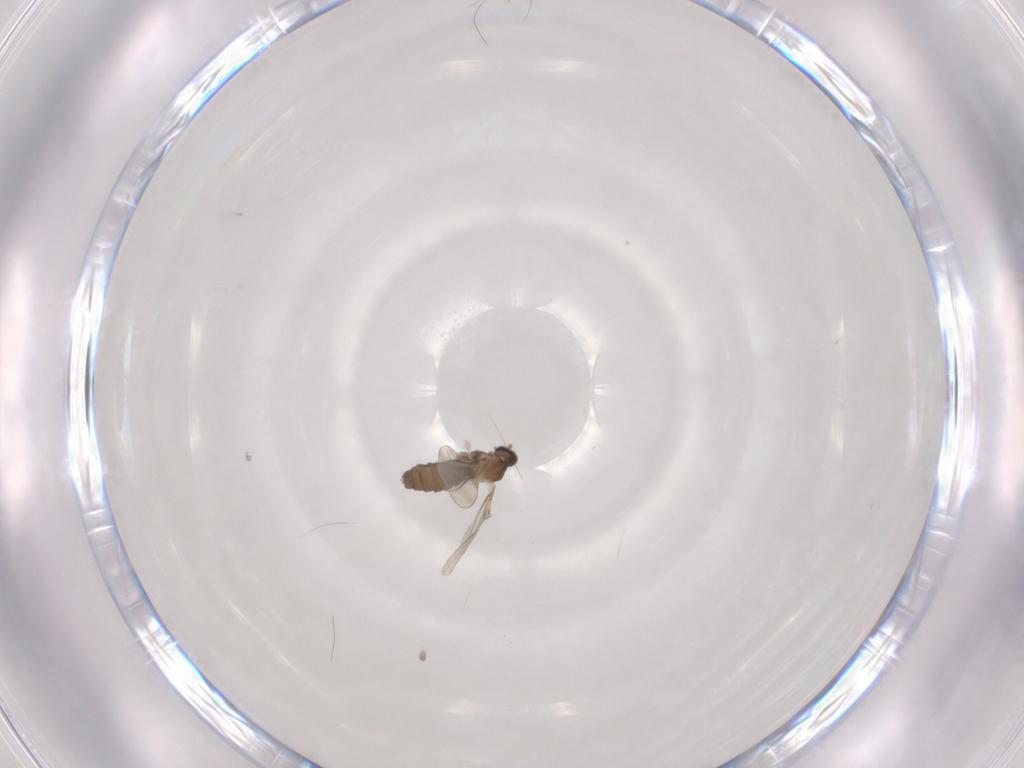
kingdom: Animalia
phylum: Arthropoda
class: Insecta
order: Diptera
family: Cecidomyiidae
